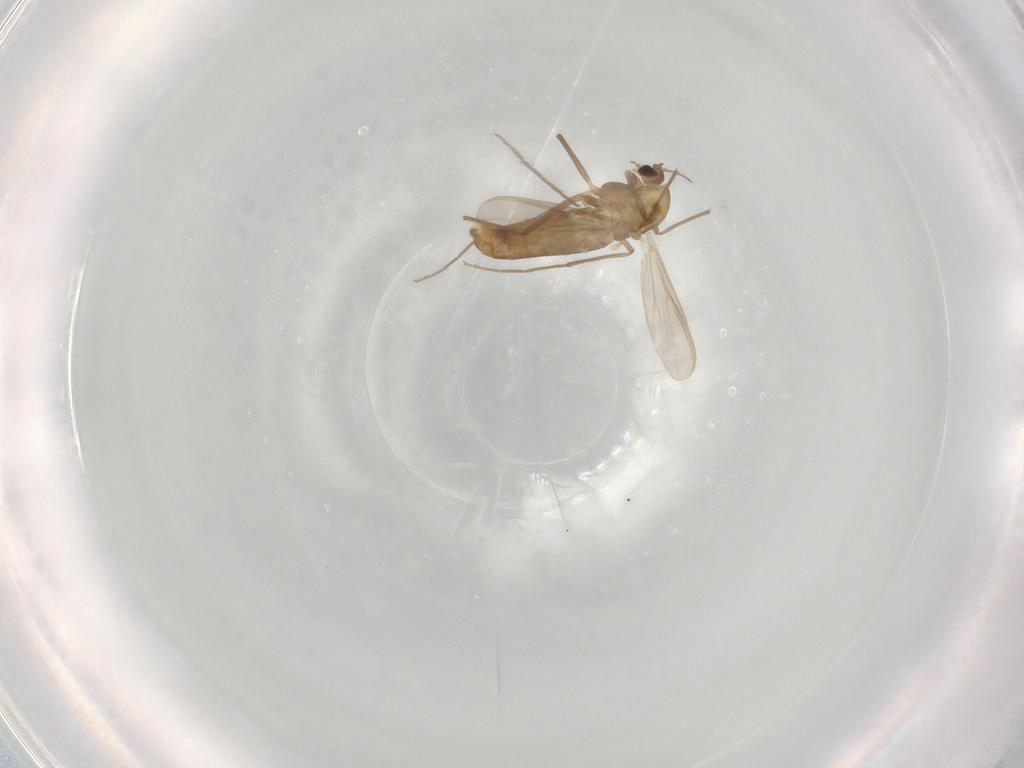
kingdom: Animalia
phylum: Arthropoda
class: Insecta
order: Diptera
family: Chironomidae
